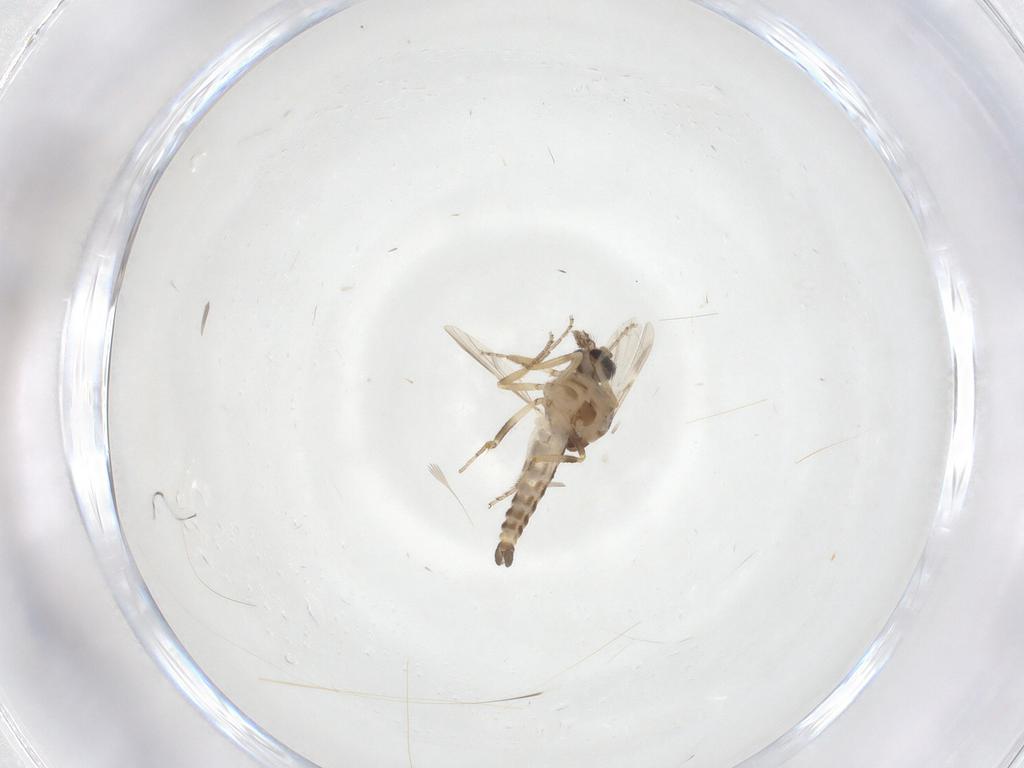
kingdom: Animalia
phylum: Arthropoda
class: Insecta
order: Diptera
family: Ceratopogonidae
